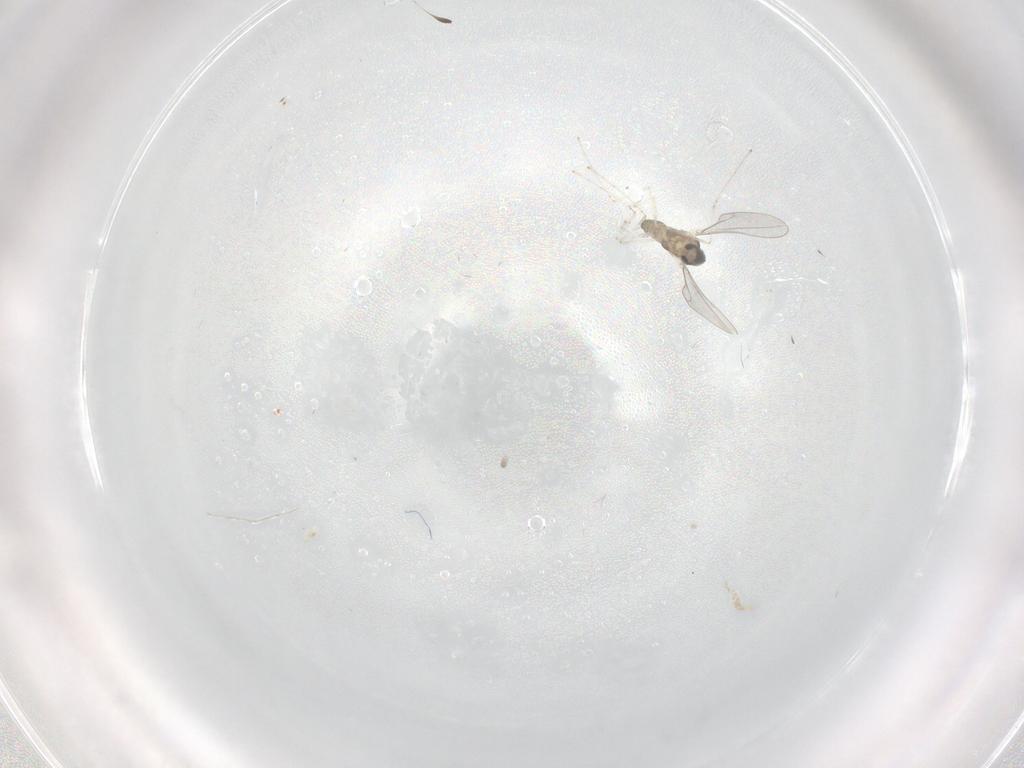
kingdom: Animalia
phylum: Arthropoda
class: Insecta
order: Diptera
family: Cecidomyiidae
